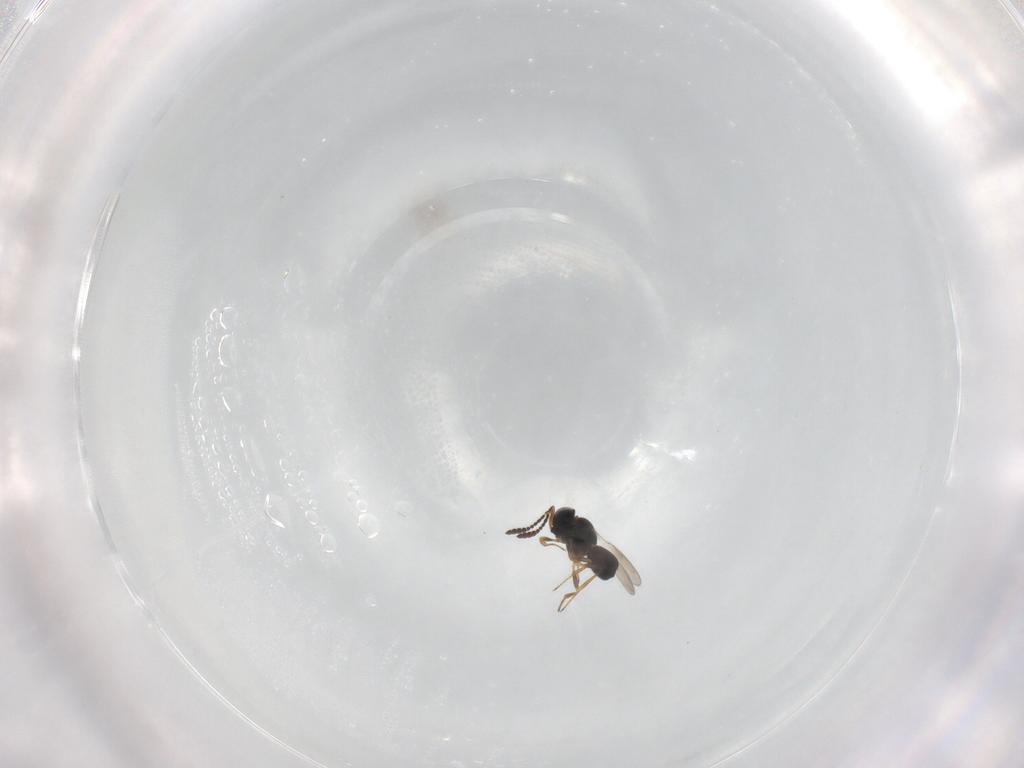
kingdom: Animalia
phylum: Arthropoda
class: Insecta
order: Hymenoptera
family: Scelionidae
